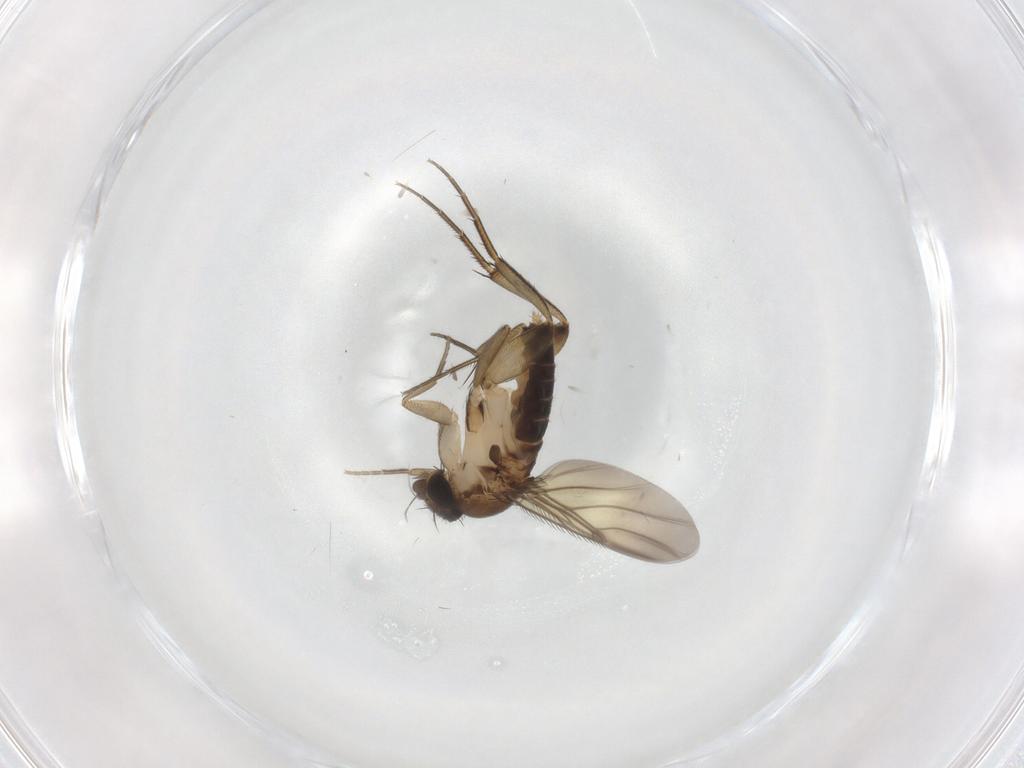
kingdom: Animalia
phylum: Arthropoda
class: Insecta
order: Diptera
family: Phoridae
